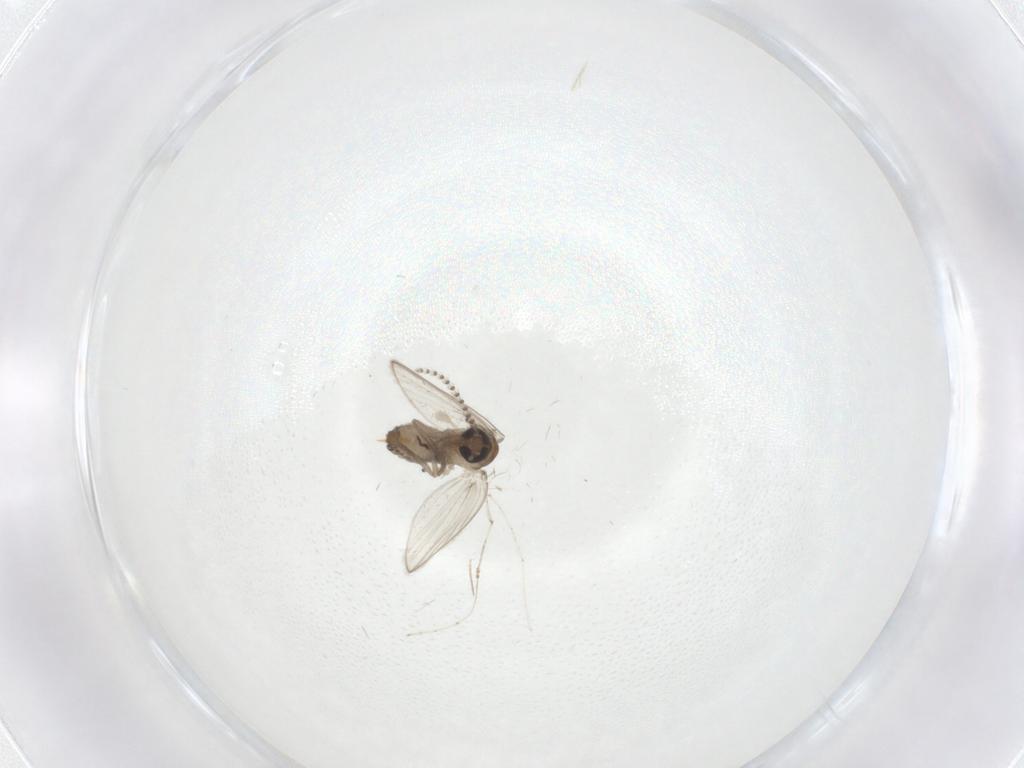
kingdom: Animalia
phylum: Arthropoda
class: Insecta
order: Diptera
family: Psychodidae
